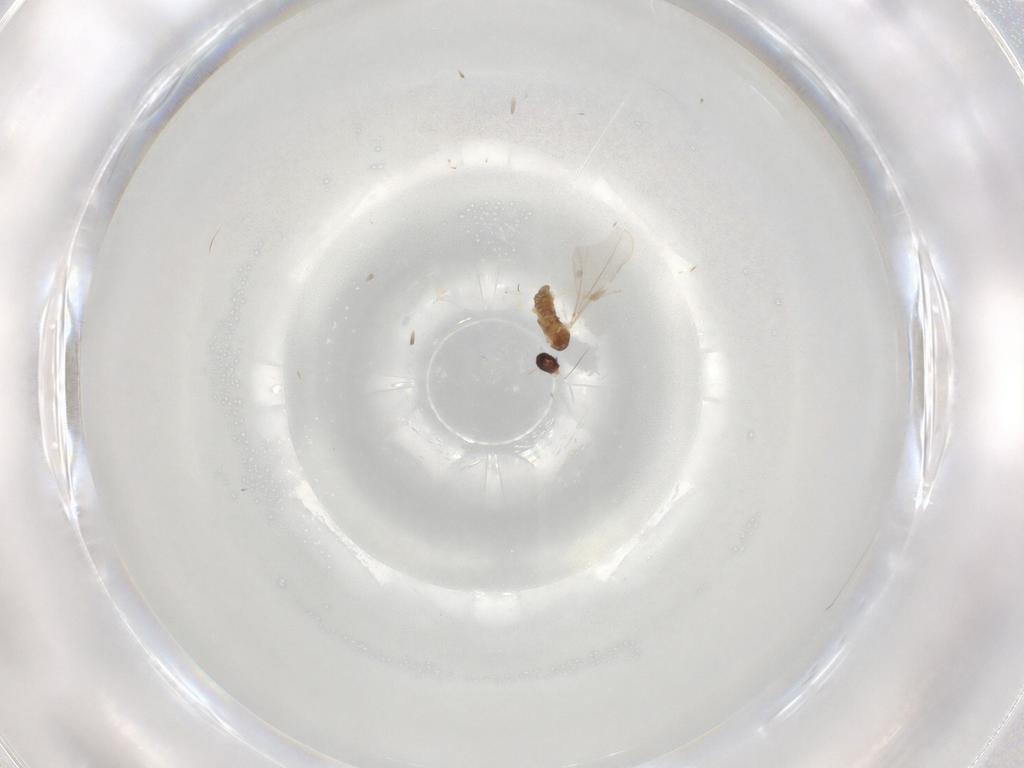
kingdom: Animalia
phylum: Arthropoda
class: Insecta
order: Diptera
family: Cecidomyiidae
